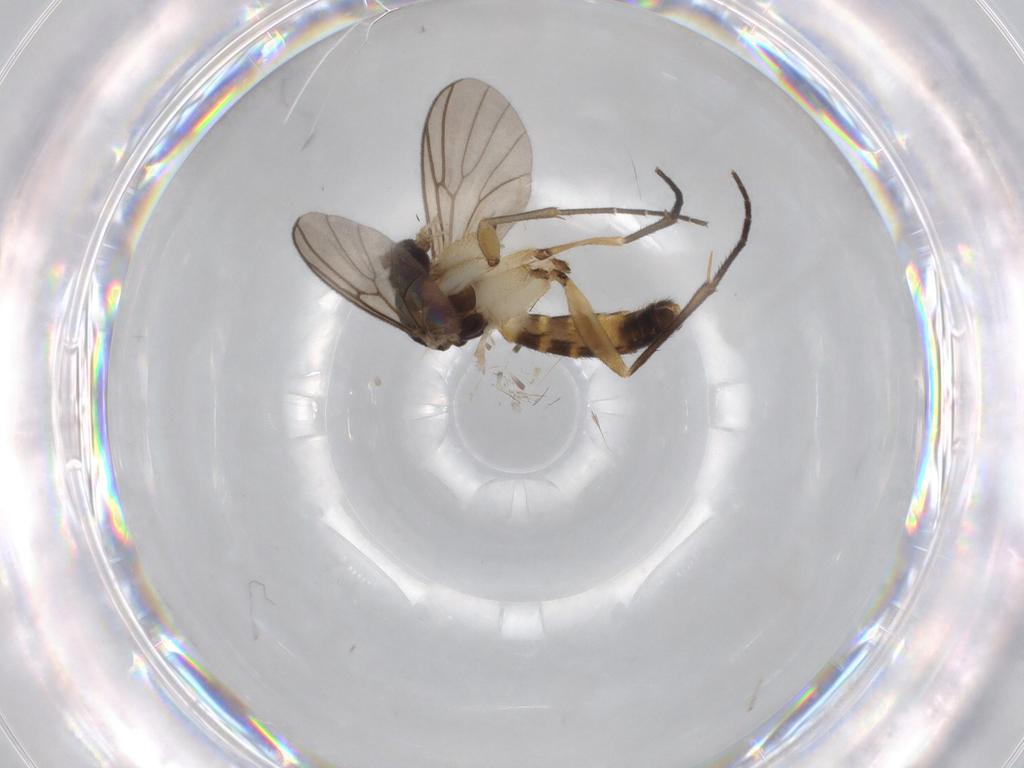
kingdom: Animalia
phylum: Arthropoda
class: Insecta
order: Diptera
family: Mycetophilidae
